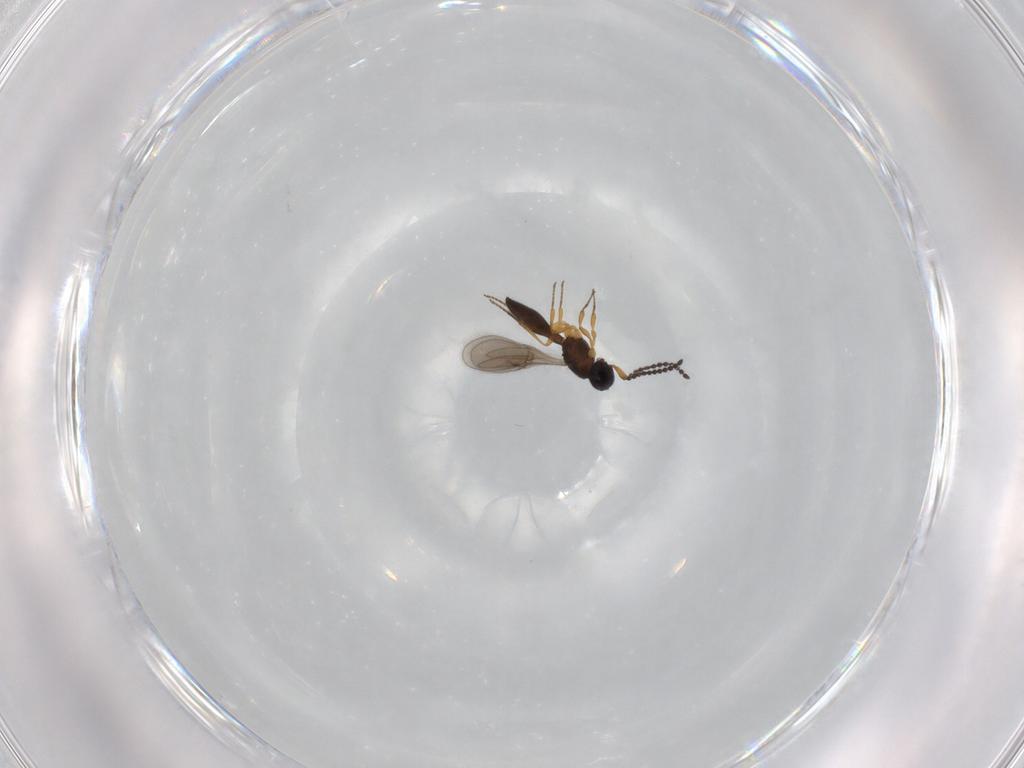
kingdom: Animalia
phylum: Arthropoda
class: Insecta
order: Hymenoptera
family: Scelionidae
